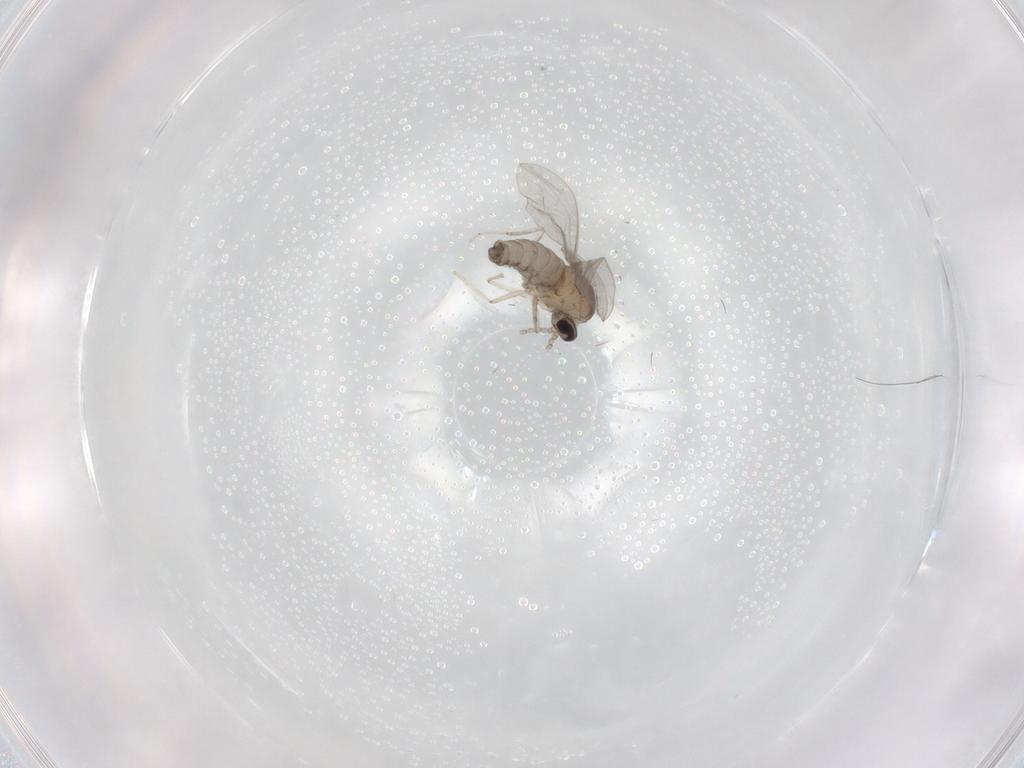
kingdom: Animalia
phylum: Arthropoda
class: Insecta
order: Diptera
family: Cecidomyiidae
